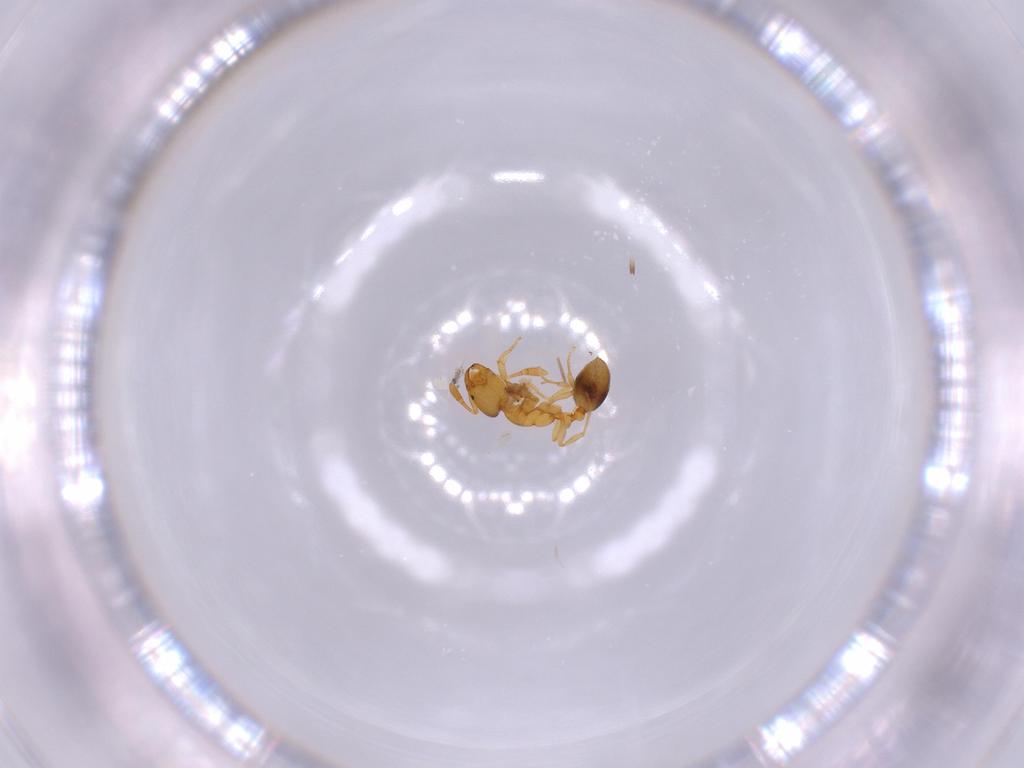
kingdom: Animalia
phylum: Arthropoda
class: Insecta
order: Hymenoptera
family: Formicidae
